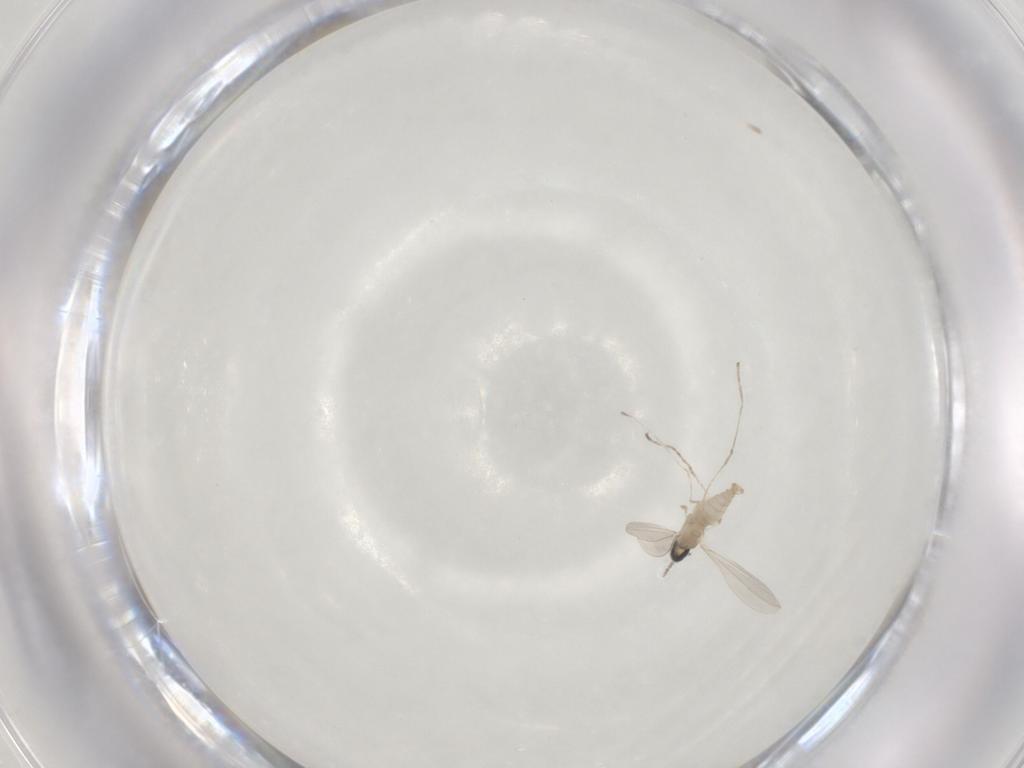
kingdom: Animalia
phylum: Arthropoda
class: Insecta
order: Diptera
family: Cecidomyiidae
